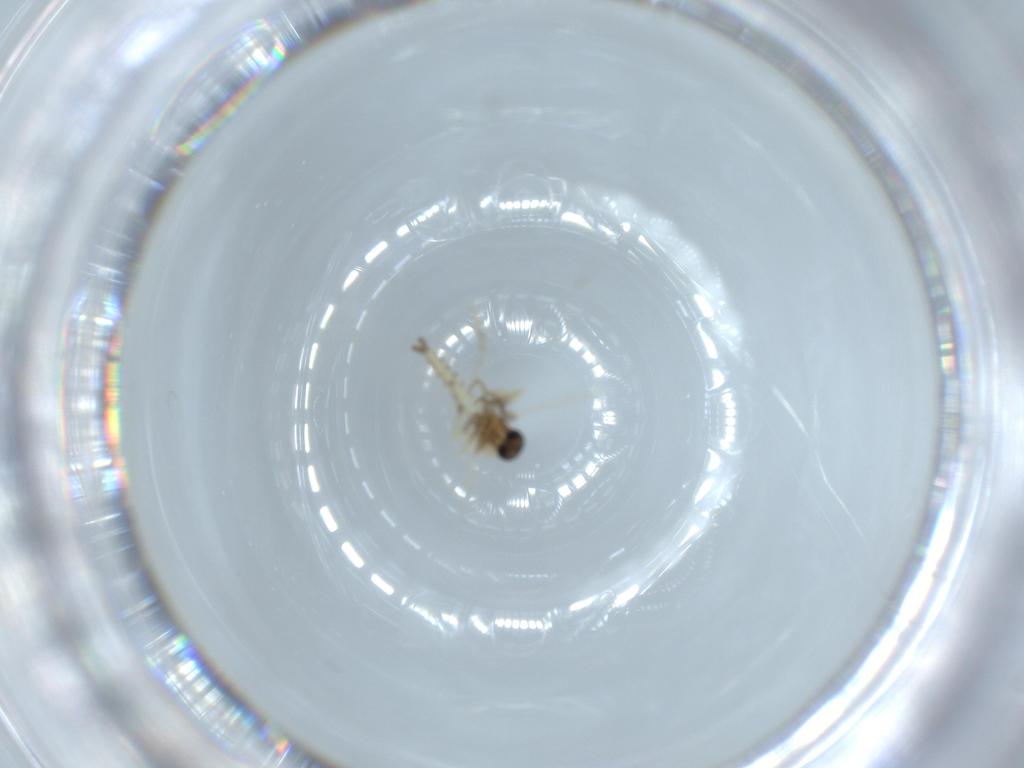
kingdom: Animalia
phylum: Arthropoda
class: Insecta
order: Diptera
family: Ceratopogonidae
